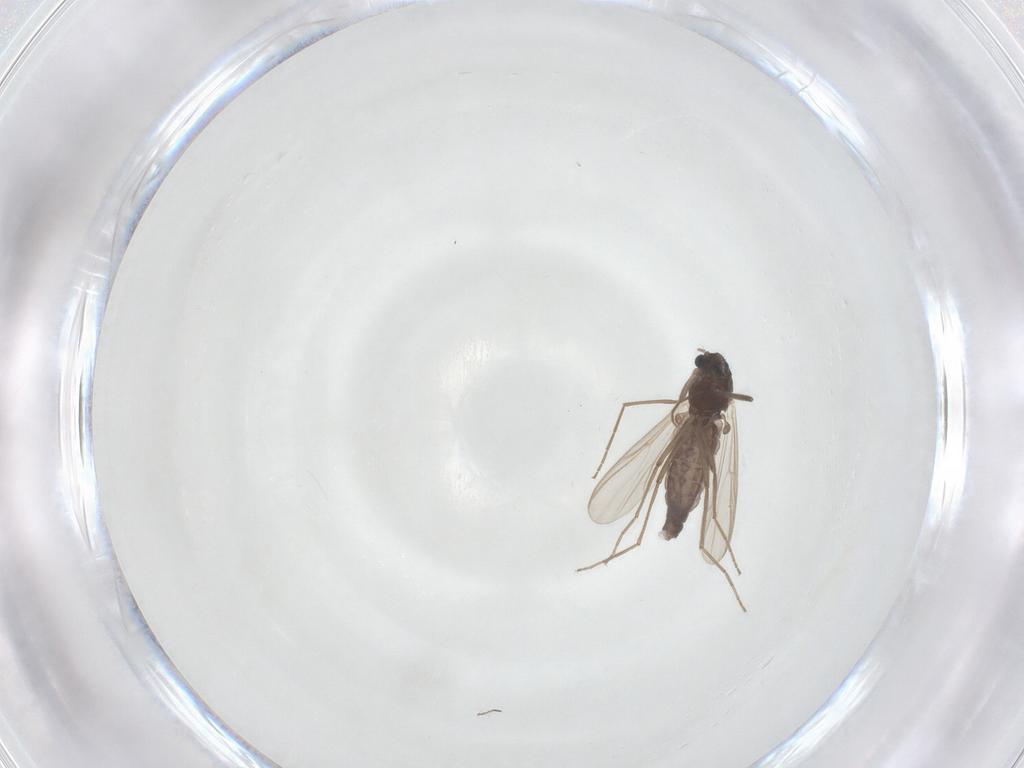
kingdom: Animalia
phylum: Arthropoda
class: Insecta
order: Diptera
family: Chironomidae
